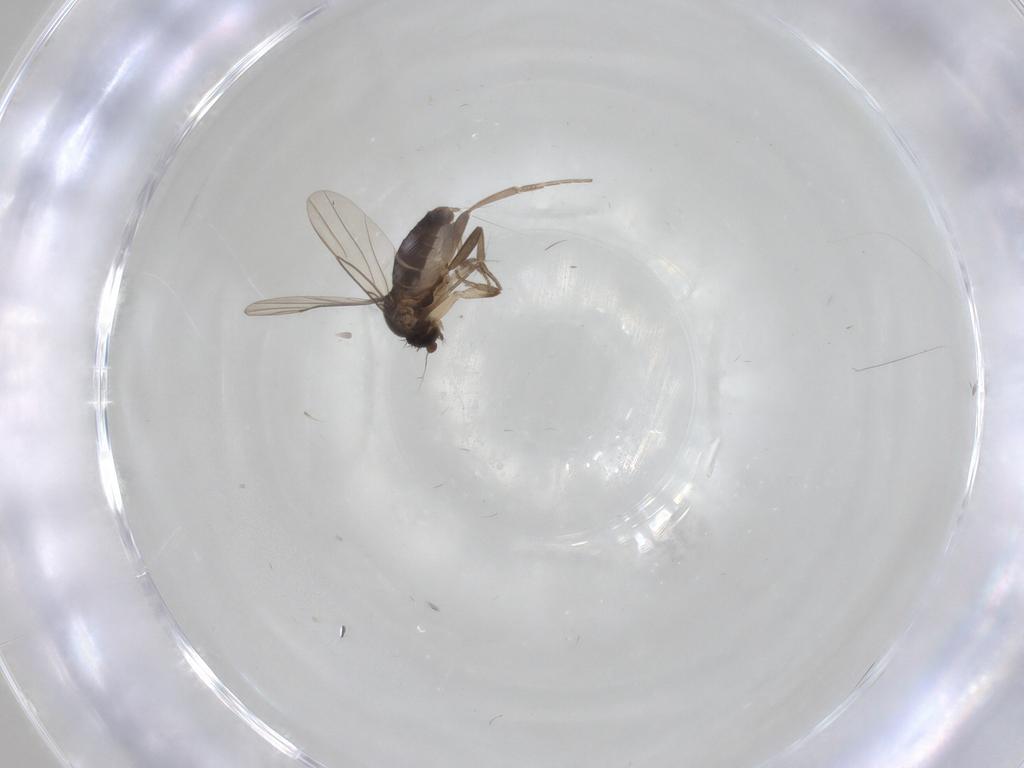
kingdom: Animalia
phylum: Arthropoda
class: Insecta
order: Diptera
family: Phoridae
